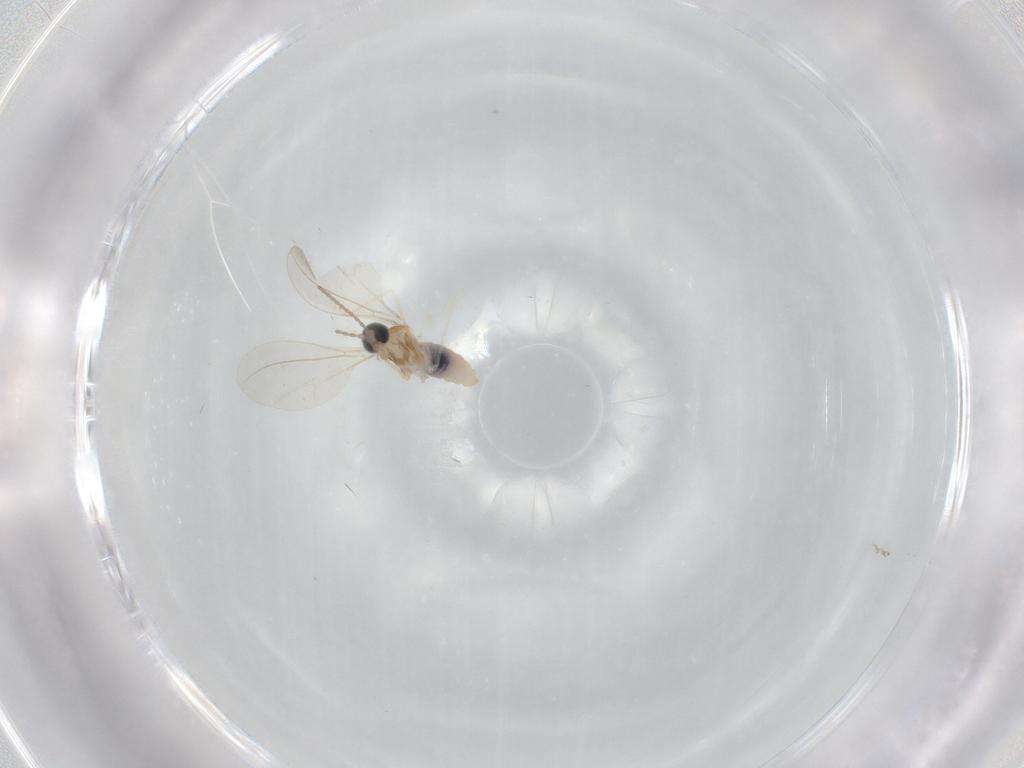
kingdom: Animalia
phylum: Arthropoda
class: Insecta
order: Diptera
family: Cecidomyiidae
